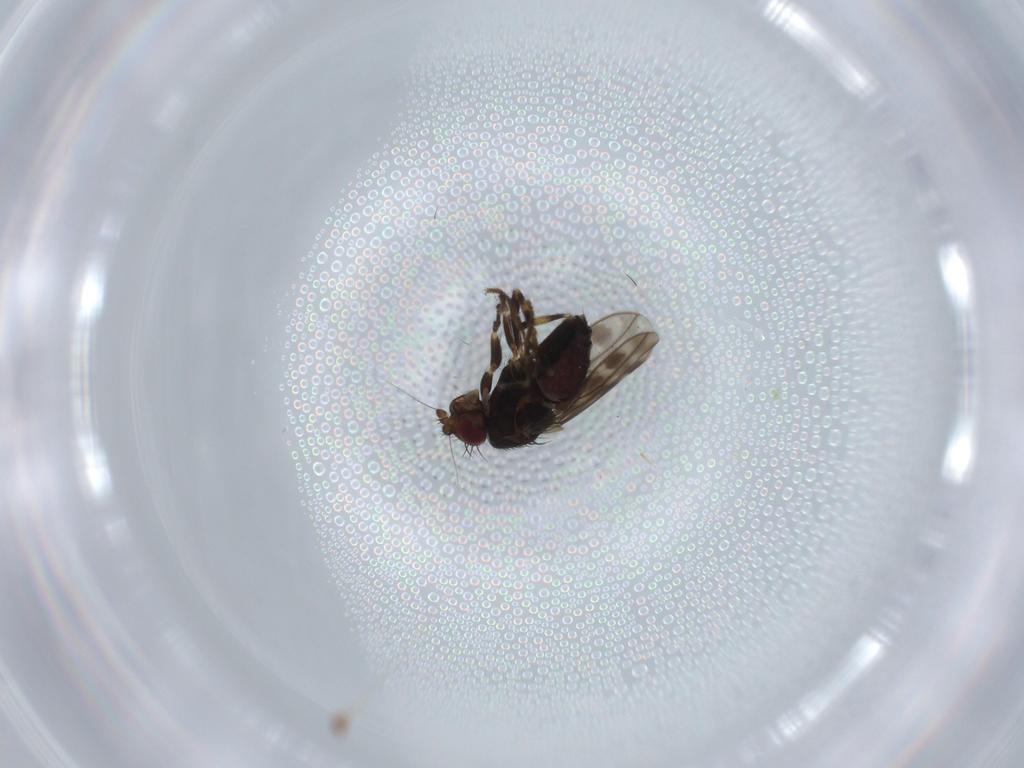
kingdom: Animalia
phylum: Arthropoda
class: Insecta
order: Diptera
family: Sphaeroceridae
